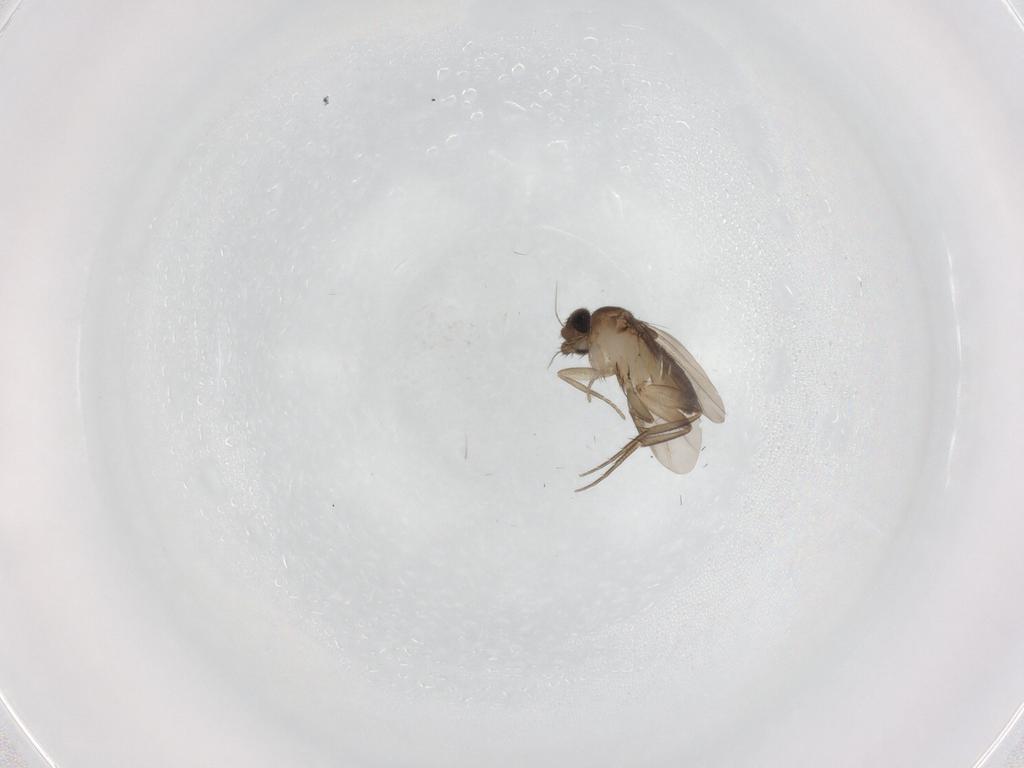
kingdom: Animalia
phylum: Arthropoda
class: Insecta
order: Diptera
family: Phoridae
